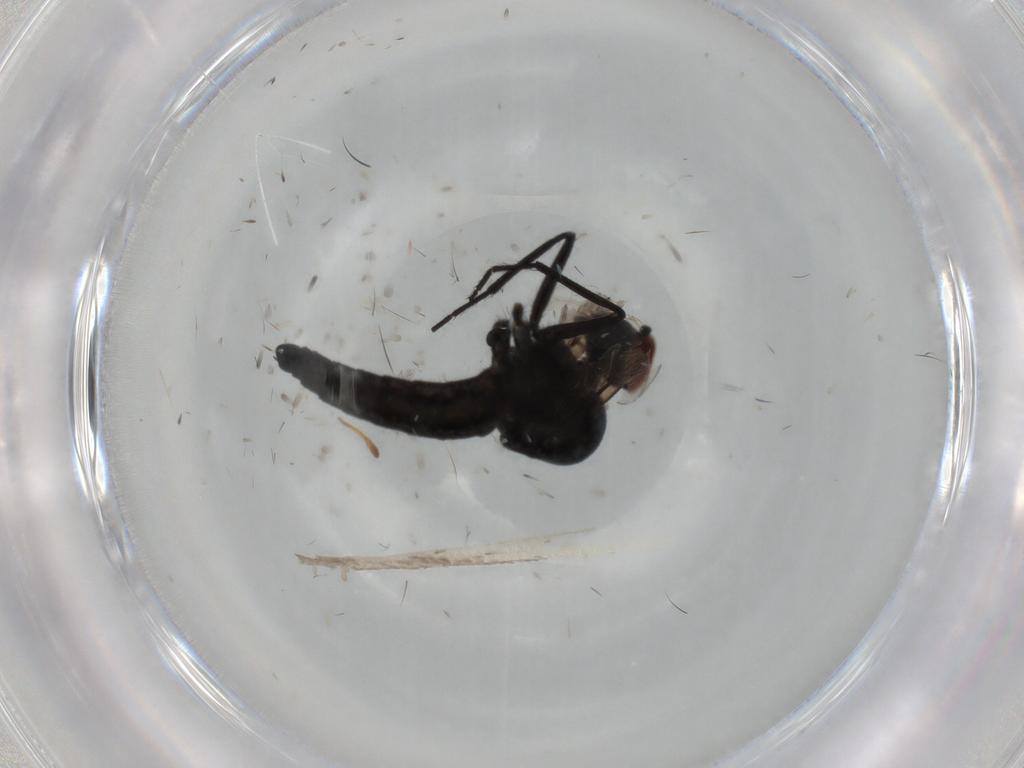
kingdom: Animalia
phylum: Arthropoda
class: Insecta
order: Diptera
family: Hybotidae
